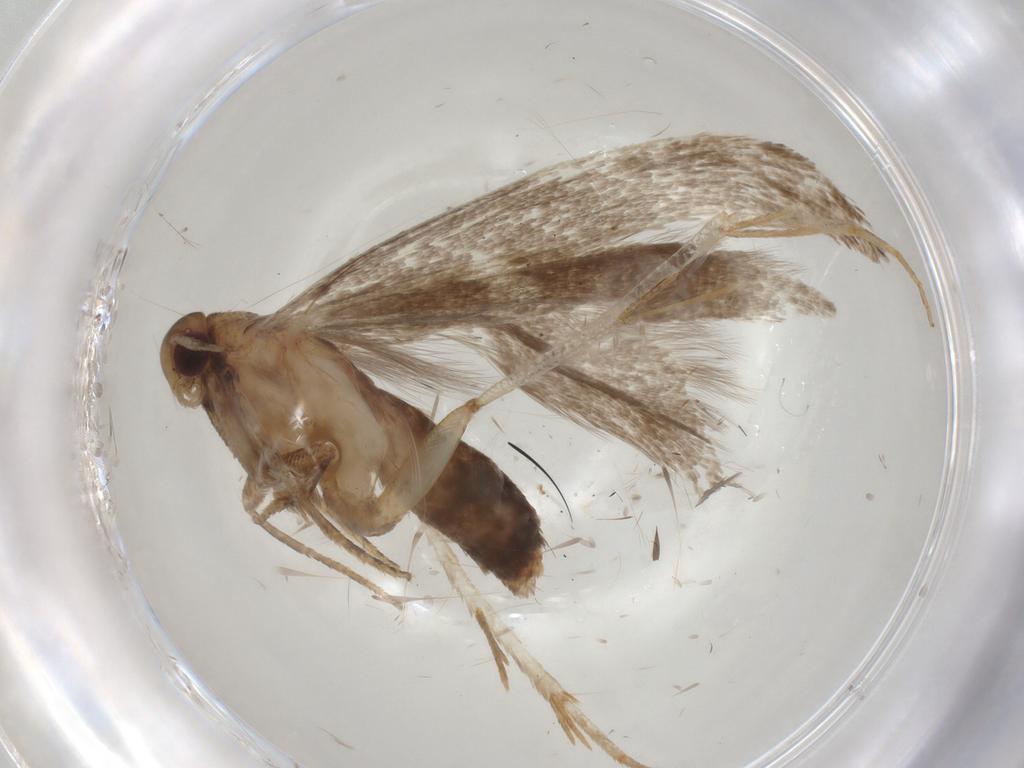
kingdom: Animalia
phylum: Arthropoda
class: Insecta
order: Lepidoptera
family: Gelechiidae
